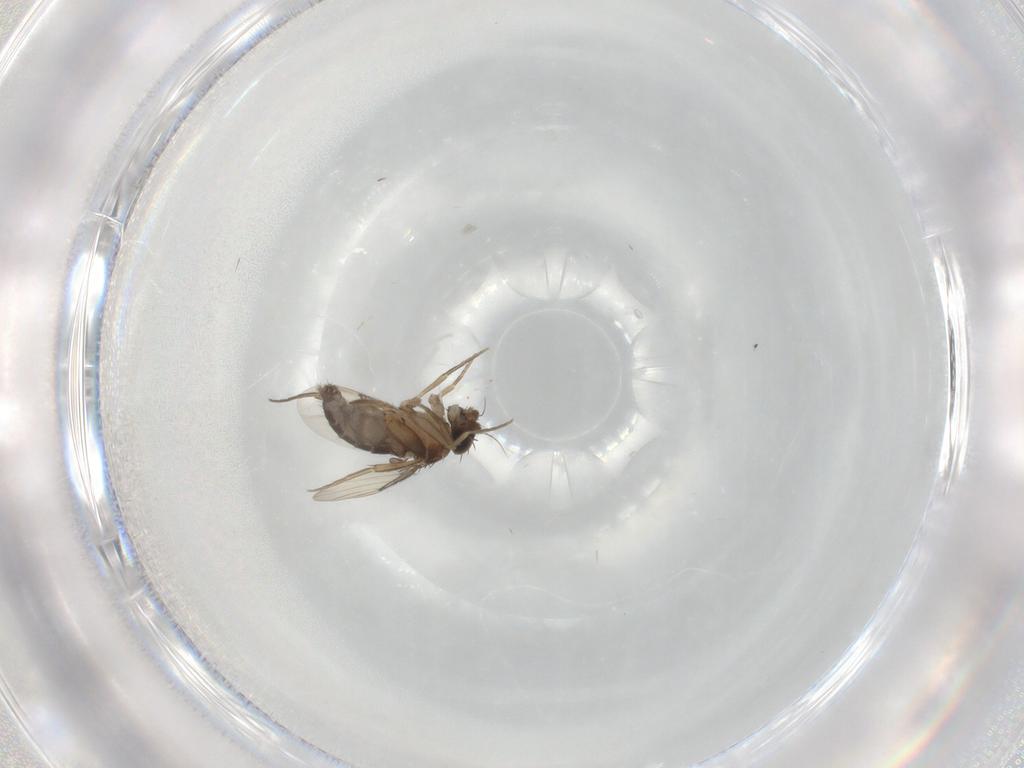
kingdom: Animalia
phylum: Arthropoda
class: Insecta
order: Diptera
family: Phoridae
